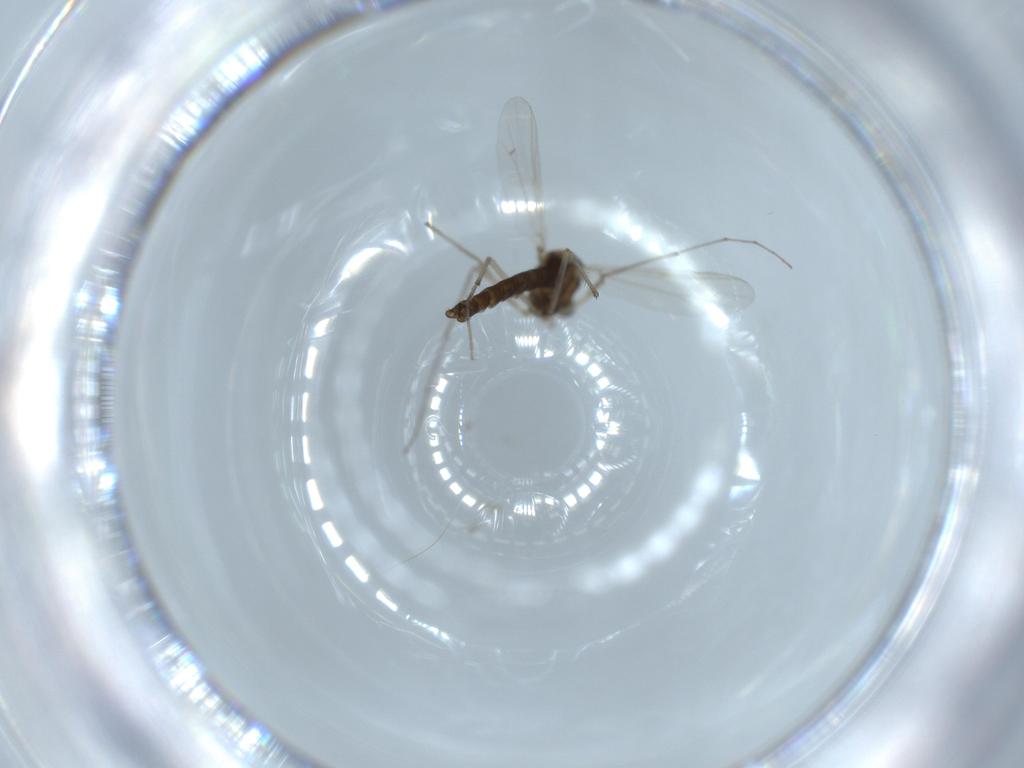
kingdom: Animalia
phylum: Arthropoda
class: Insecta
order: Diptera
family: Chironomidae
